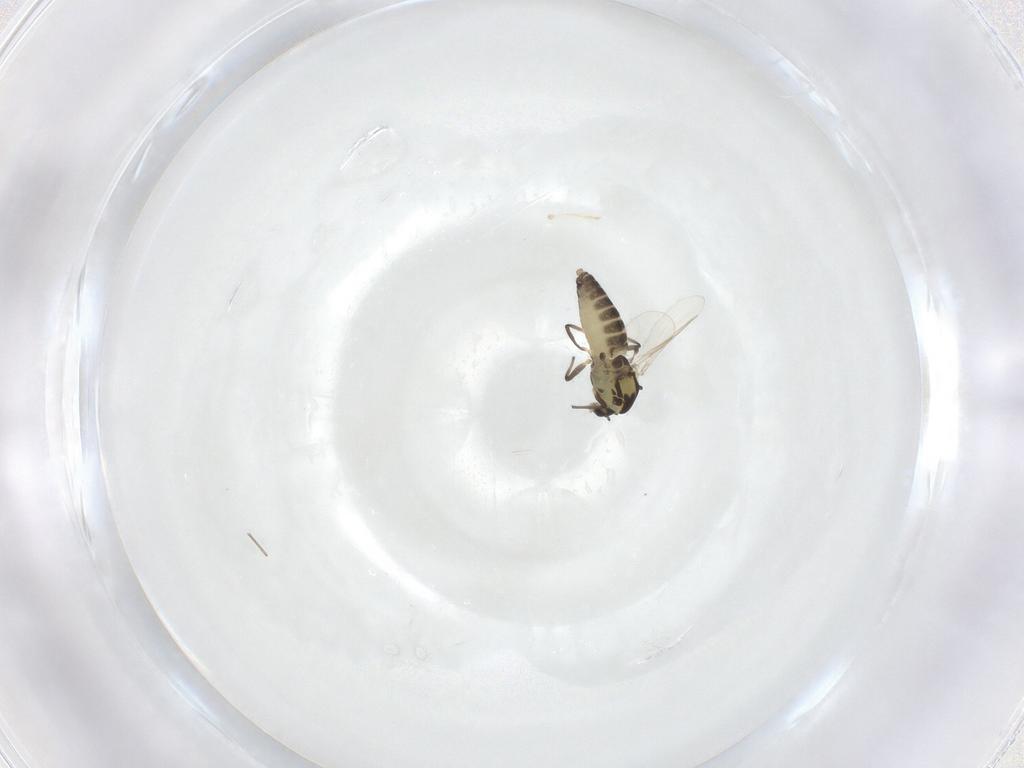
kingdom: Animalia
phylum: Arthropoda
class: Insecta
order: Diptera
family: Chironomidae
